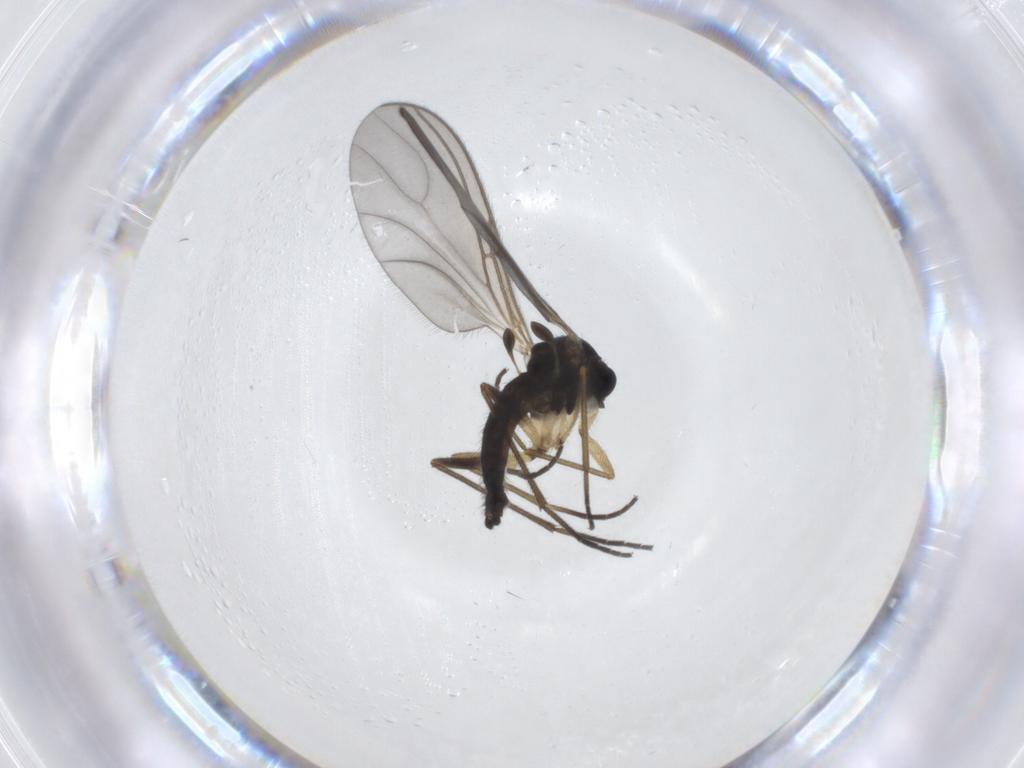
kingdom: Animalia
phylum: Arthropoda
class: Insecta
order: Diptera
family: Sciaridae
